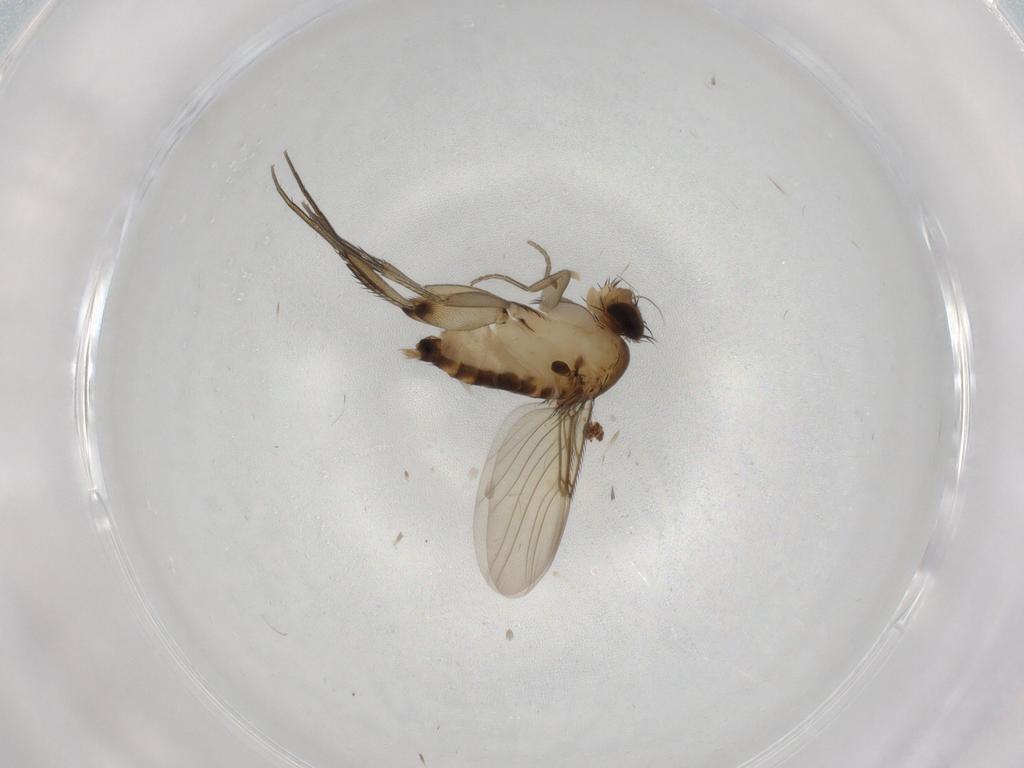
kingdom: Animalia
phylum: Arthropoda
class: Insecta
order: Diptera
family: Phoridae
